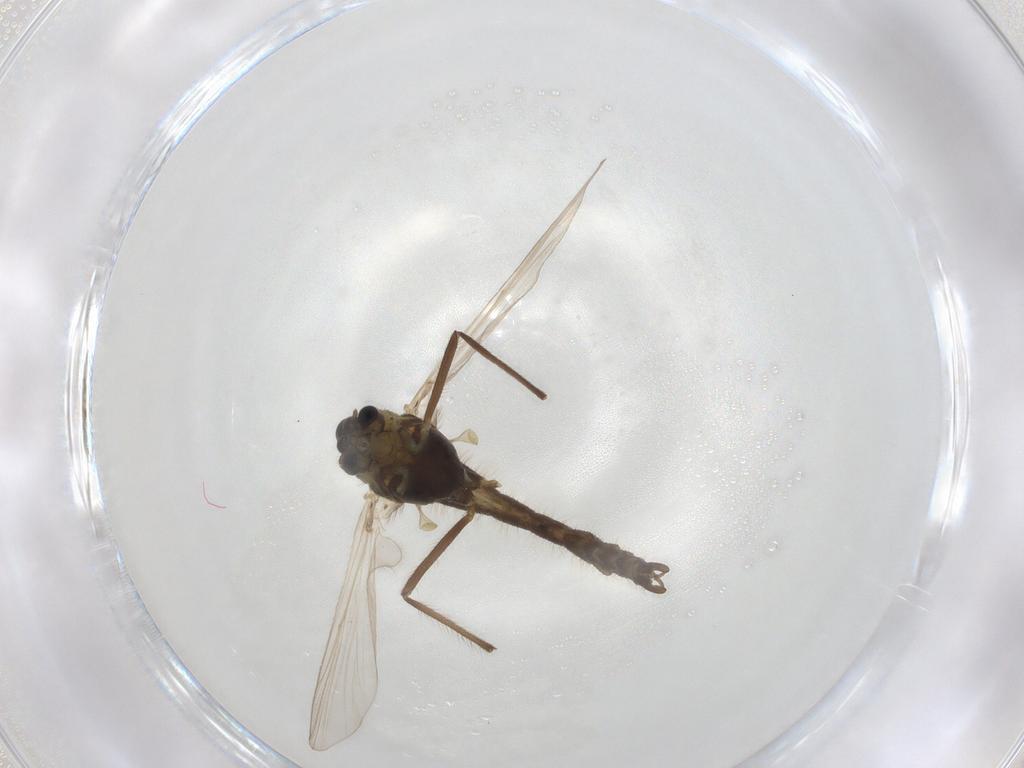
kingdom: Animalia
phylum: Arthropoda
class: Insecta
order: Diptera
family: Chironomidae
